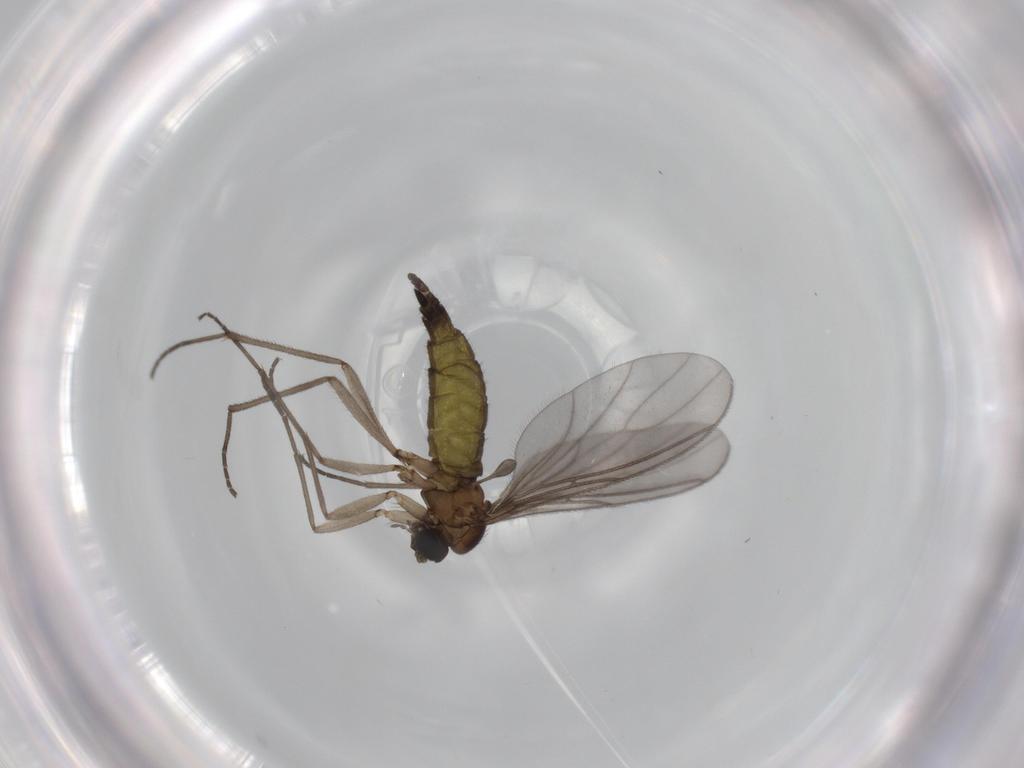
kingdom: Animalia
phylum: Arthropoda
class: Insecta
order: Diptera
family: Sciaridae
